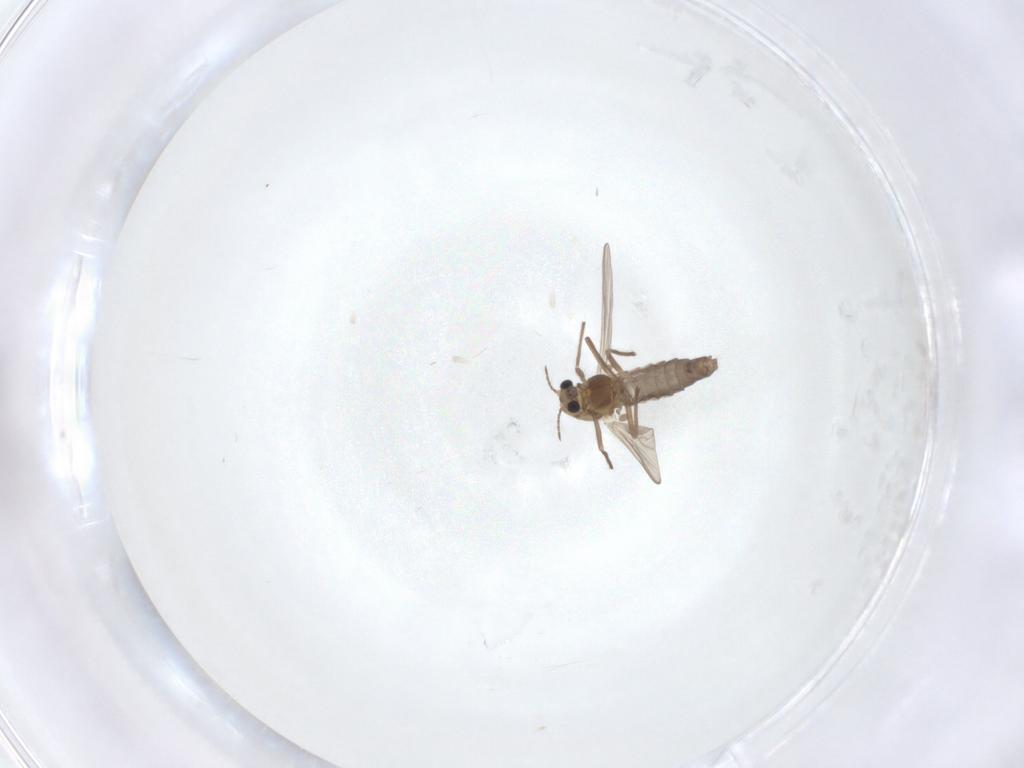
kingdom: Animalia
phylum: Arthropoda
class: Insecta
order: Diptera
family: Chironomidae
